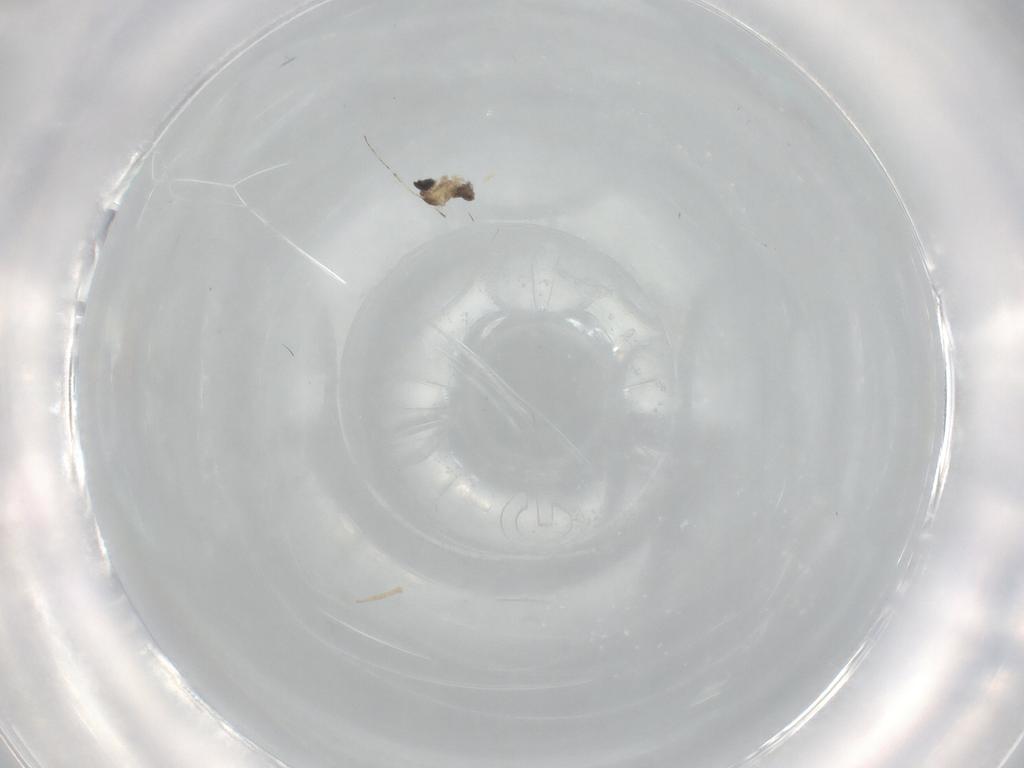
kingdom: Animalia
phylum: Arthropoda
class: Insecta
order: Diptera
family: Cecidomyiidae
